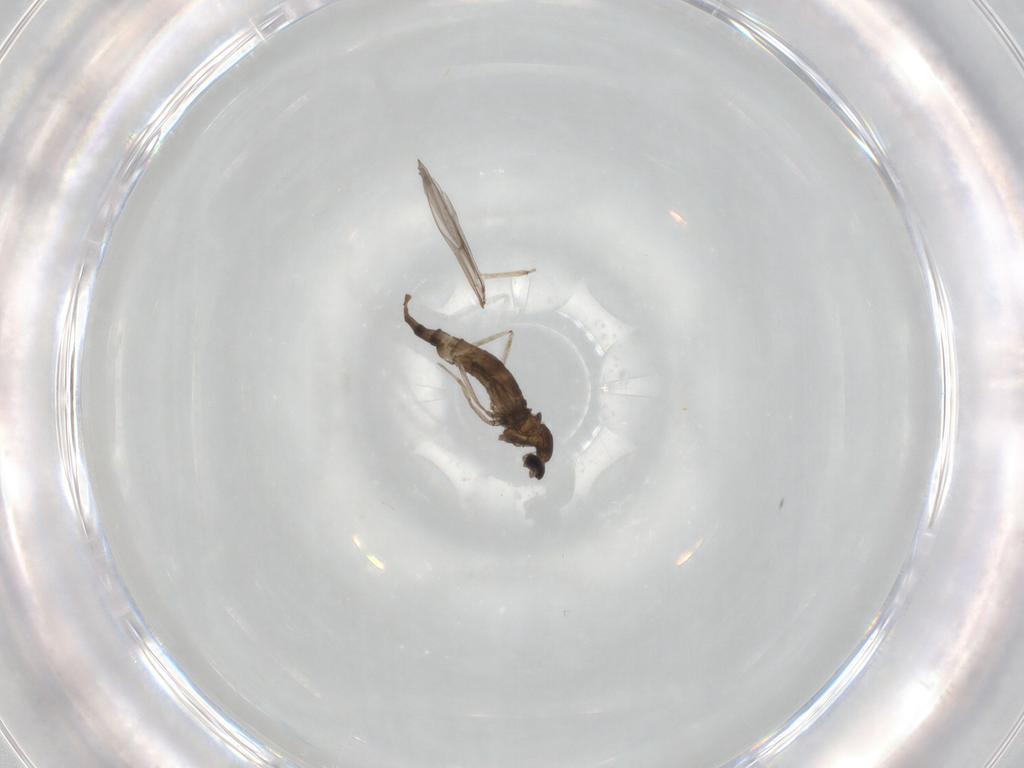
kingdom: Animalia
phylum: Arthropoda
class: Insecta
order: Diptera
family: Cecidomyiidae
